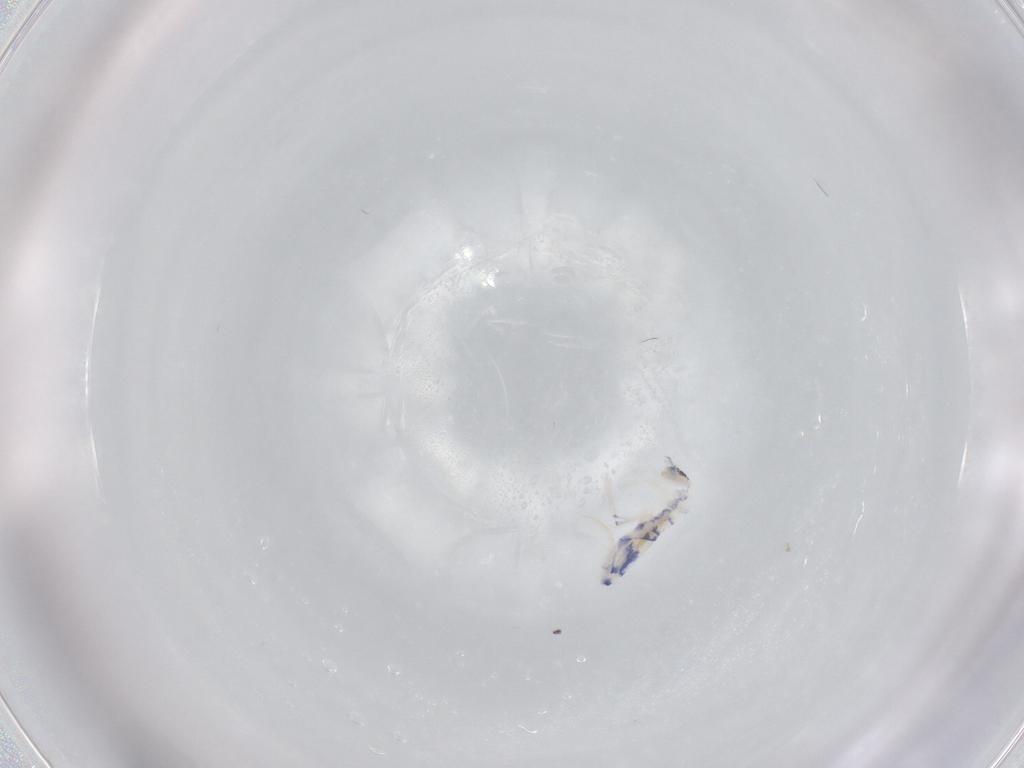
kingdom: Animalia
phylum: Arthropoda
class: Collembola
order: Entomobryomorpha
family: Entomobryidae
